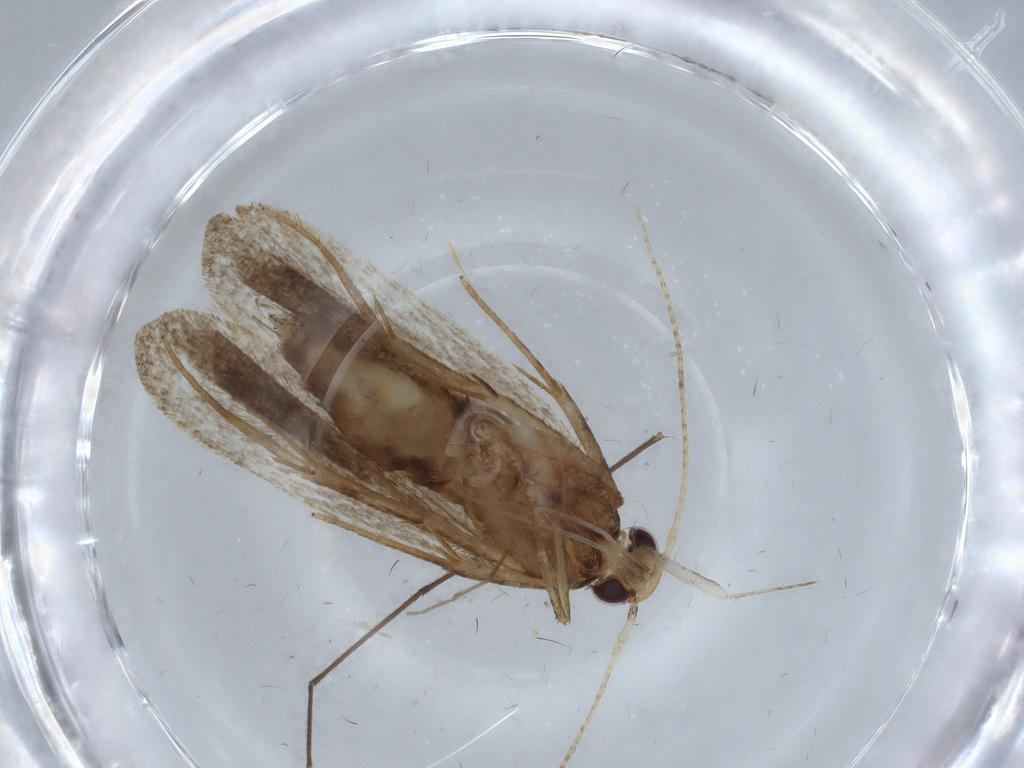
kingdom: Animalia
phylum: Arthropoda
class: Insecta
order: Lepidoptera
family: Gelechiidae
